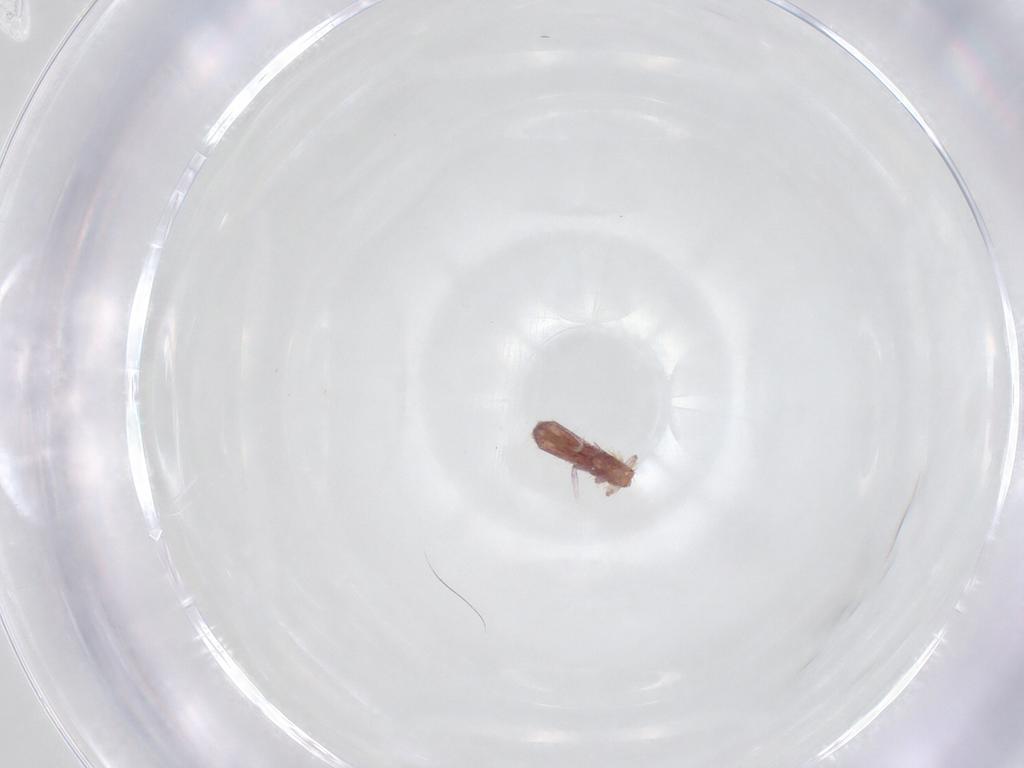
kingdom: Animalia
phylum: Arthropoda
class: Collembola
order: Entomobryomorpha
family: Entomobryidae
